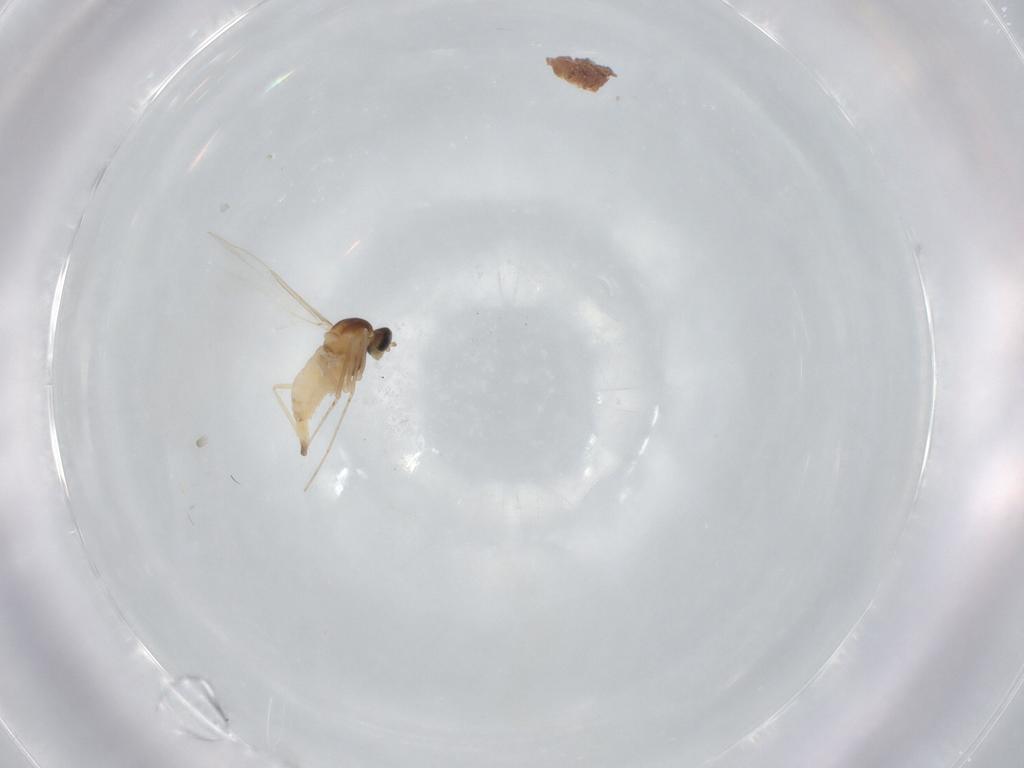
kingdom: Animalia
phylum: Arthropoda
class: Insecta
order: Diptera
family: Cecidomyiidae
